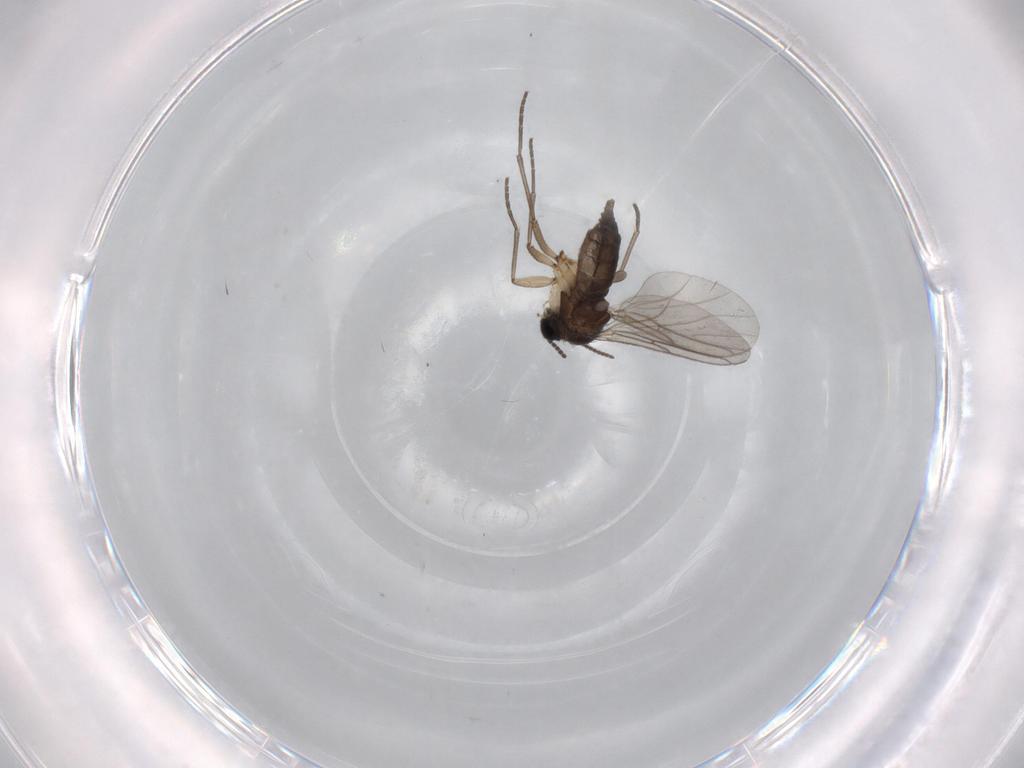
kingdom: Animalia
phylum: Arthropoda
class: Insecta
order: Diptera
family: Sciaridae
